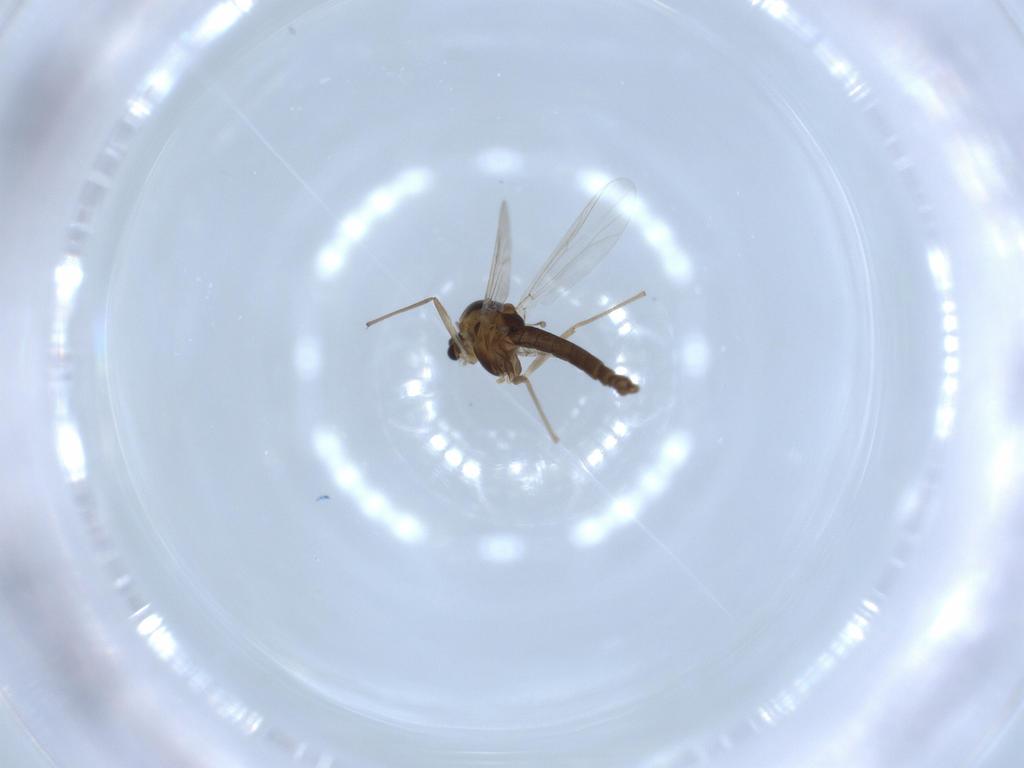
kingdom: Animalia
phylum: Arthropoda
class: Insecta
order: Diptera
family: Chironomidae
